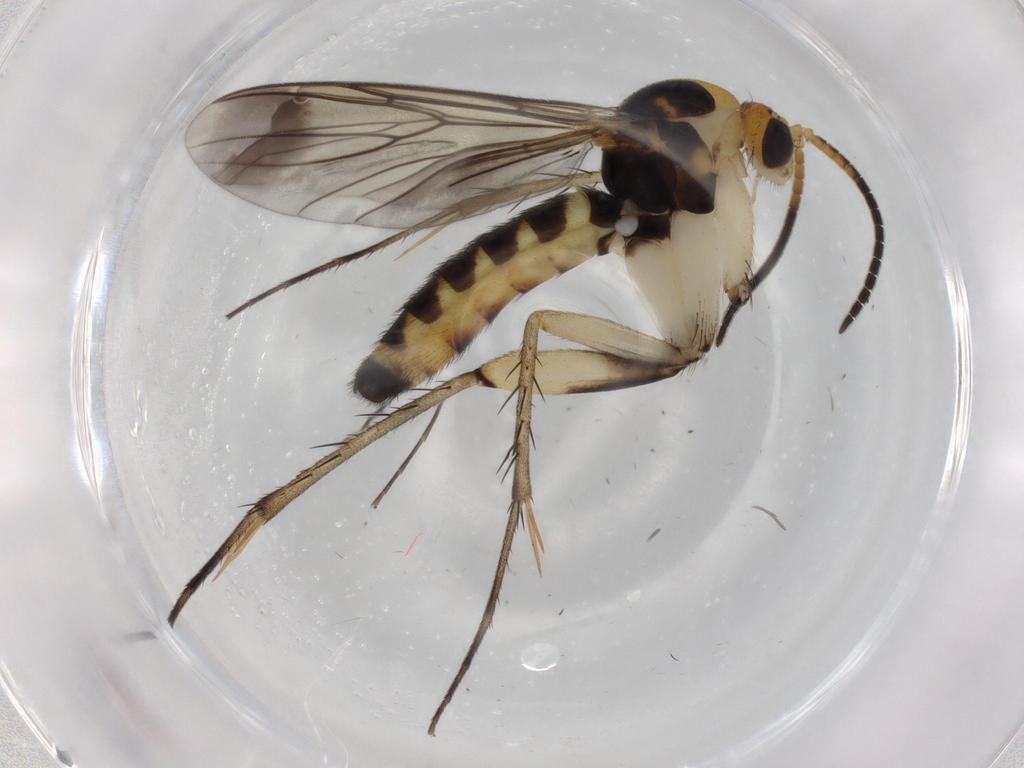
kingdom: Animalia
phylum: Arthropoda
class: Insecta
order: Diptera
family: Mycetophilidae
